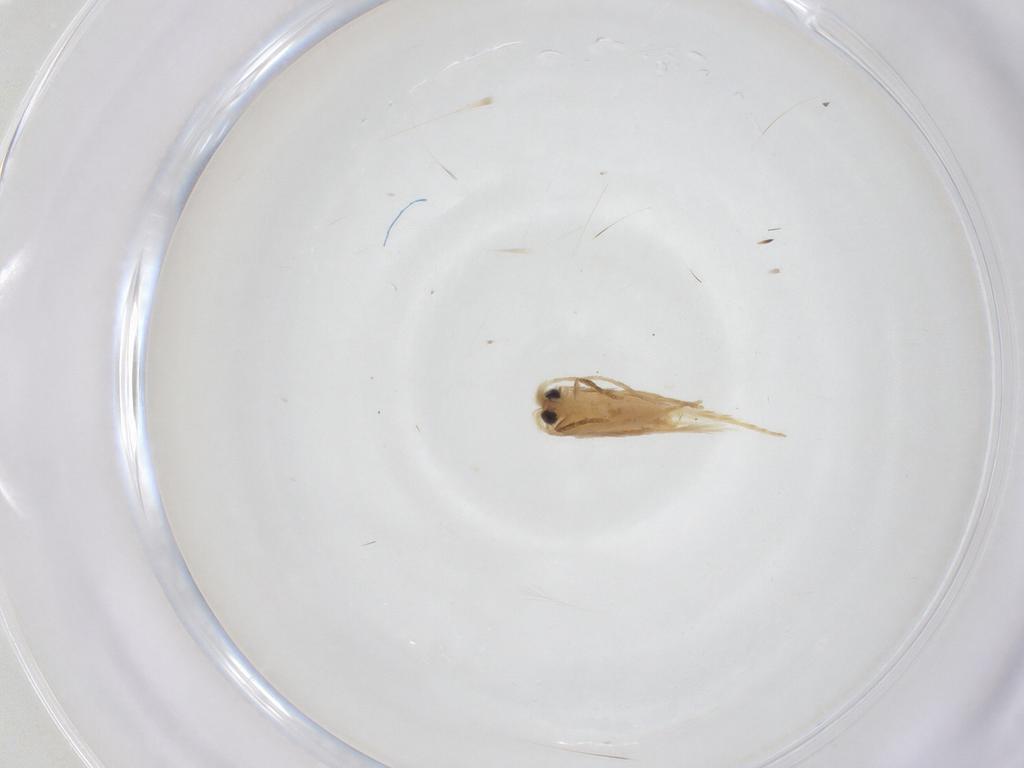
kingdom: Animalia
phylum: Arthropoda
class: Insecta
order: Lepidoptera
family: Nepticulidae
